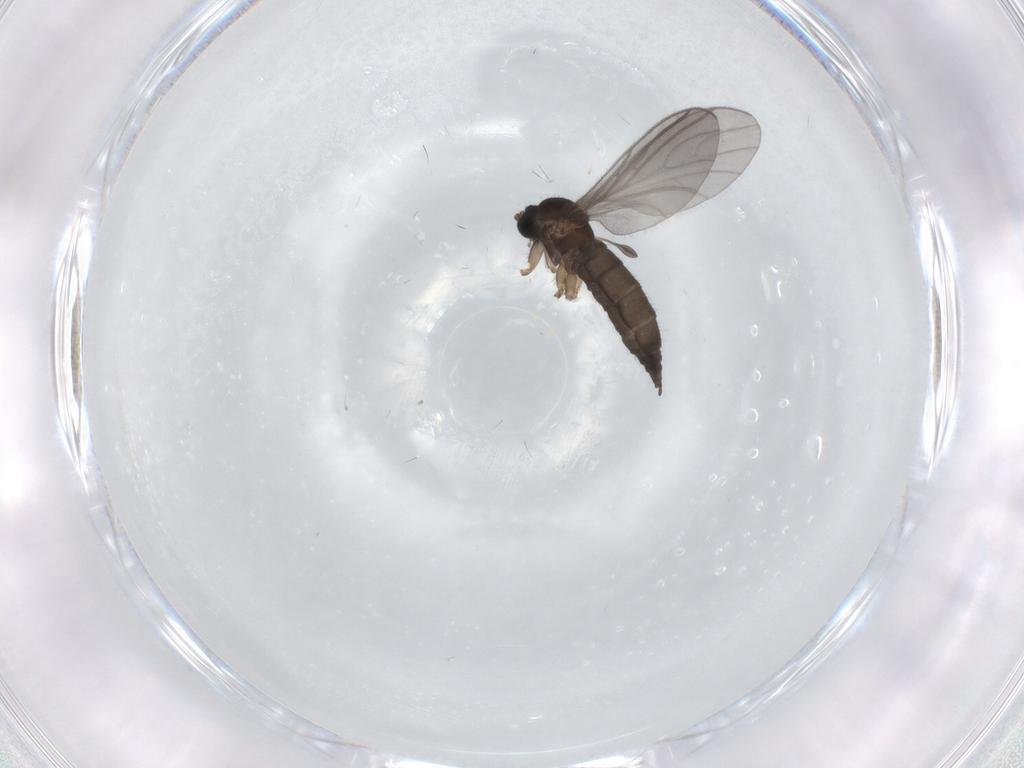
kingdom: Animalia
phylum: Arthropoda
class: Insecta
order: Diptera
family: Sciaridae
